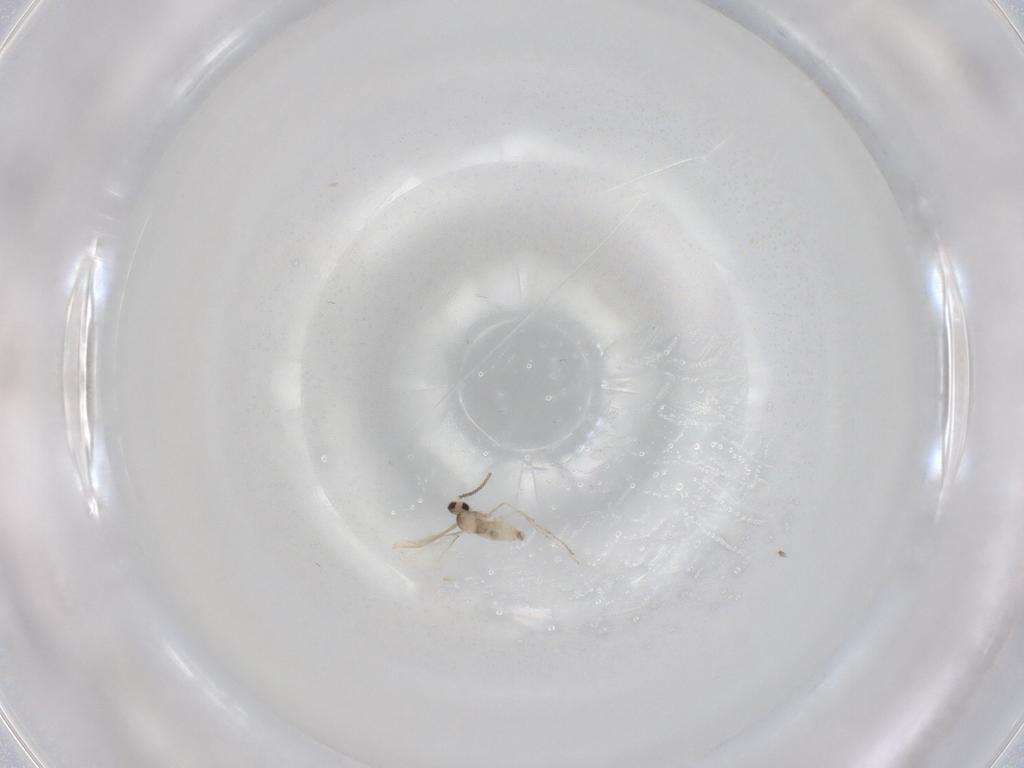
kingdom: Animalia
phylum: Arthropoda
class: Insecta
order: Diptera
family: Cecidomyiidae
